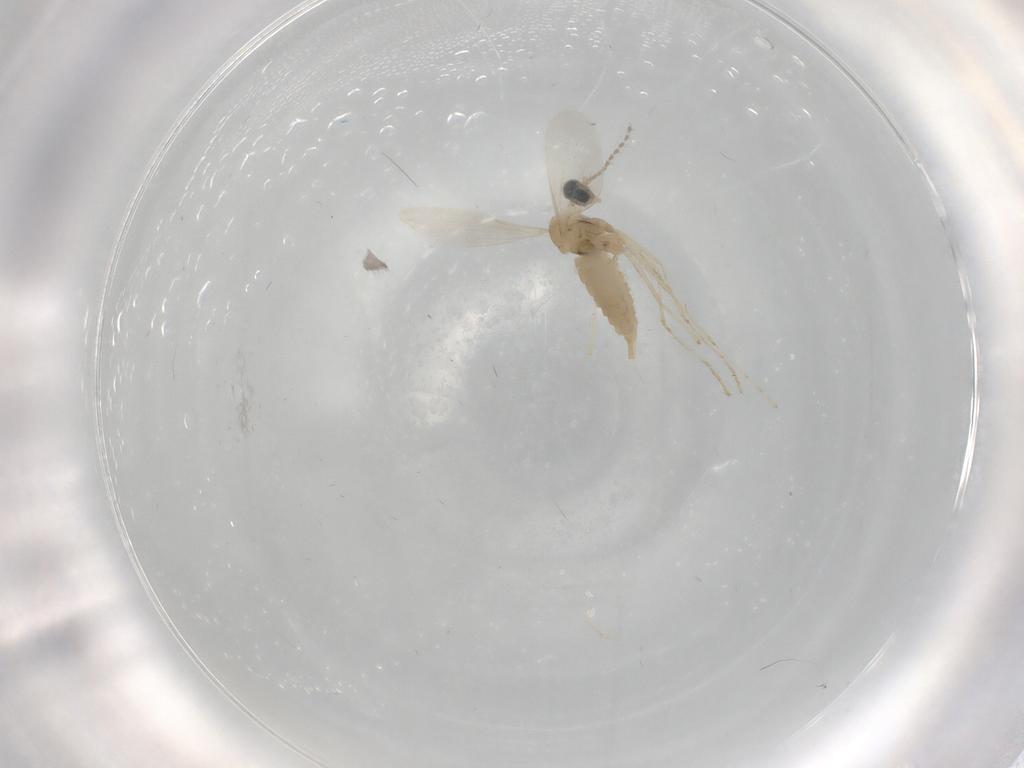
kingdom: Animalia
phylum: Arthropoda
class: Insecta
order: Diptera
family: Cecidomyiidae
